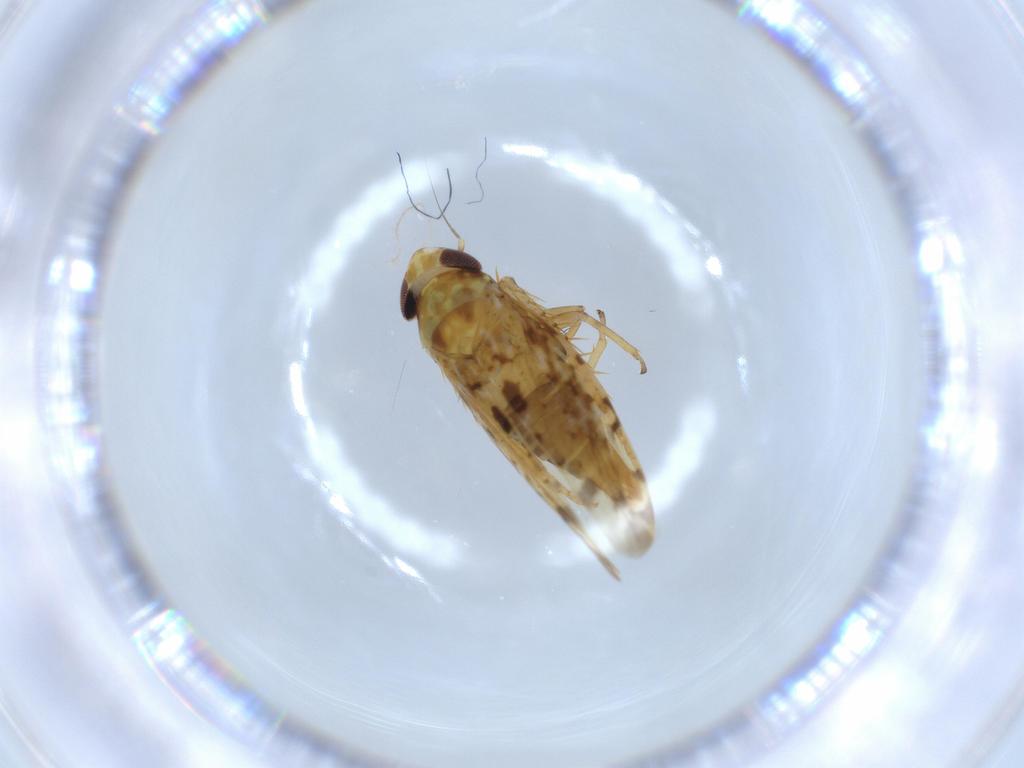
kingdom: Animalia
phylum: Arthropoda
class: Insecta
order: Hemiptera
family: Cicadellidae
